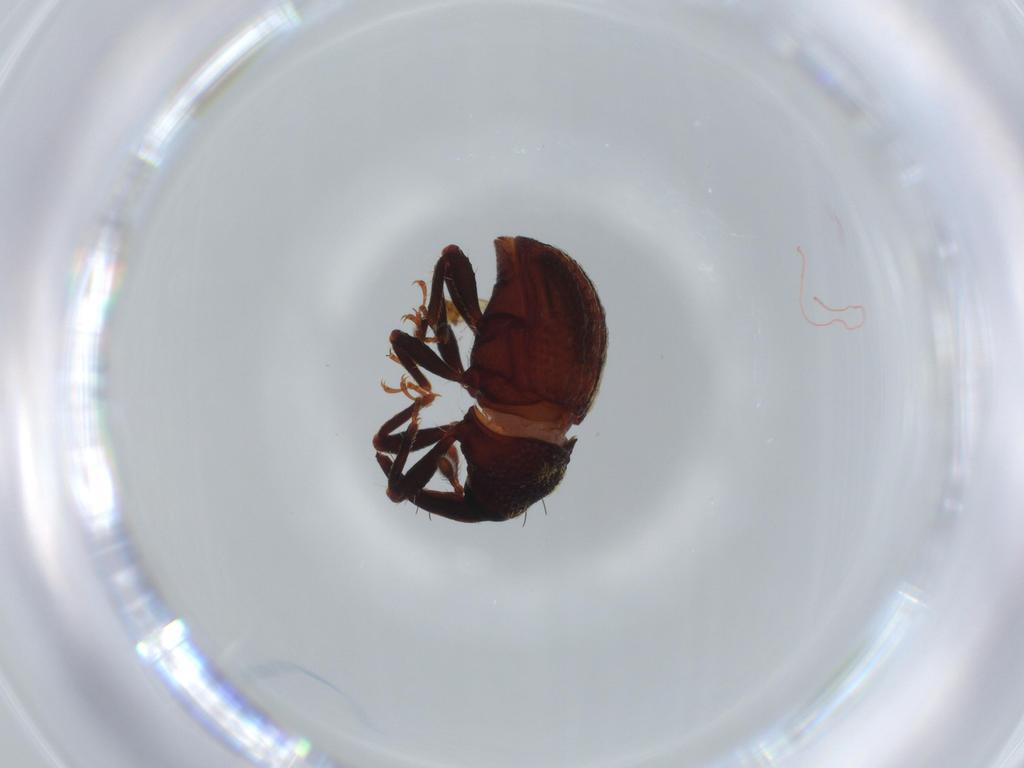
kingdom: Animalia
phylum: Arthropoda
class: Insecta
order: Coleoptera
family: Curculionidae
